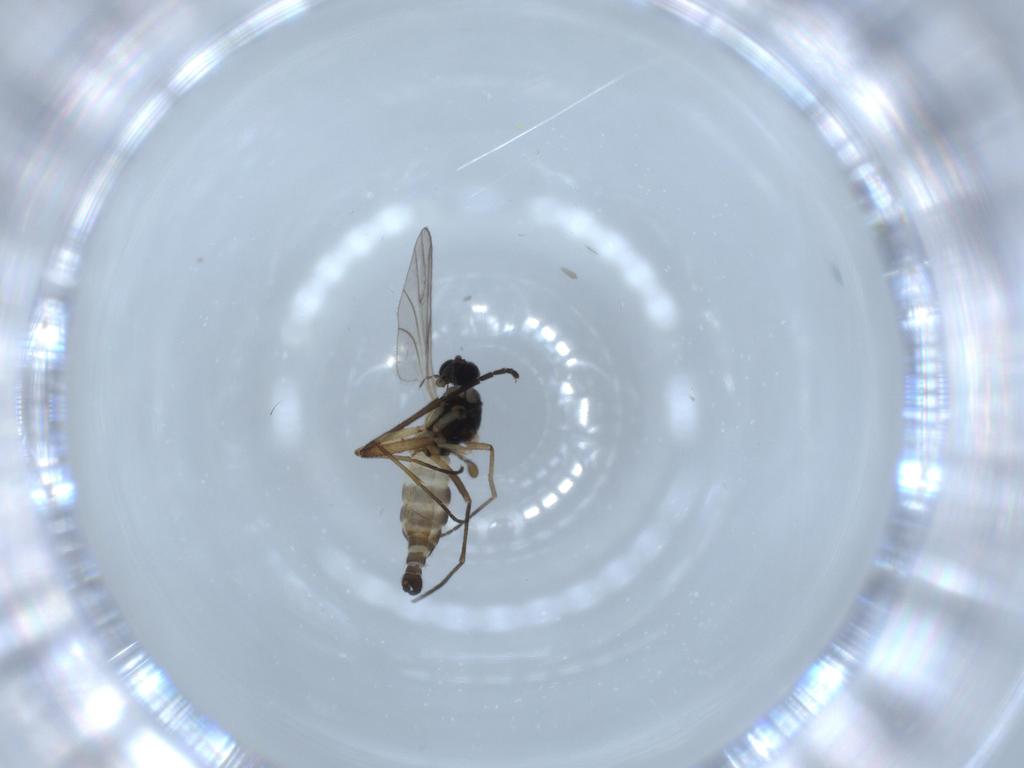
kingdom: Animalia
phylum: Arthropoda
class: Insecta
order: Diptera
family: Sciaridae
